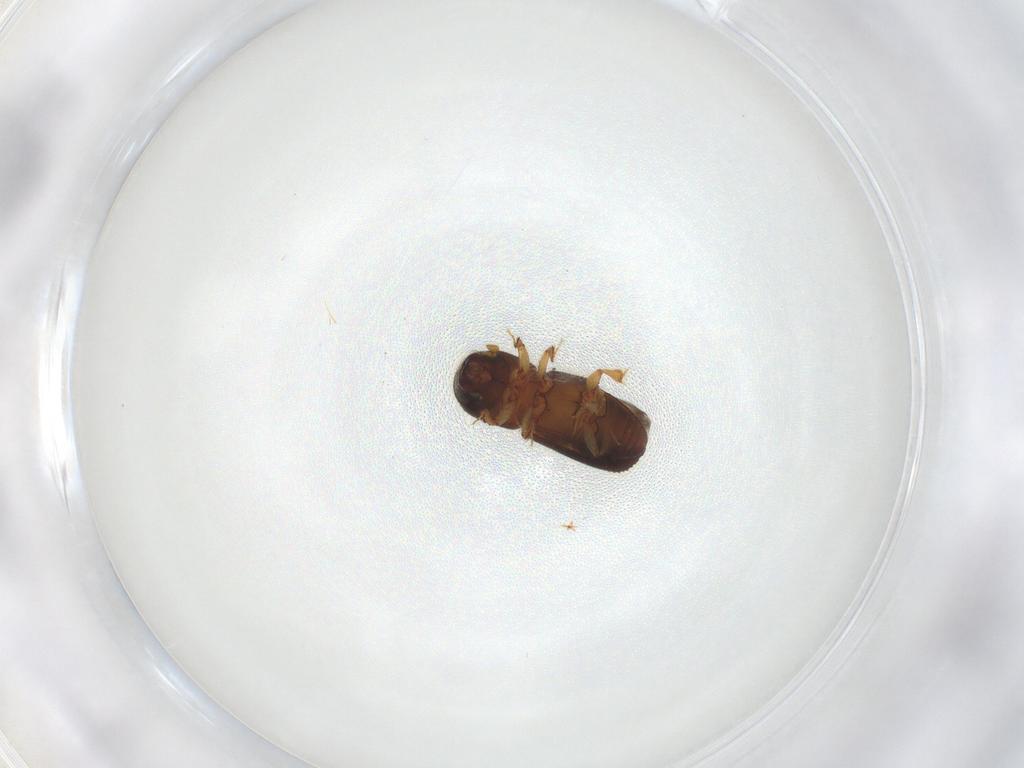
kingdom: Animalia
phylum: Arthropoda
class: Insecta
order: Coleoptera
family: Curculionidae
